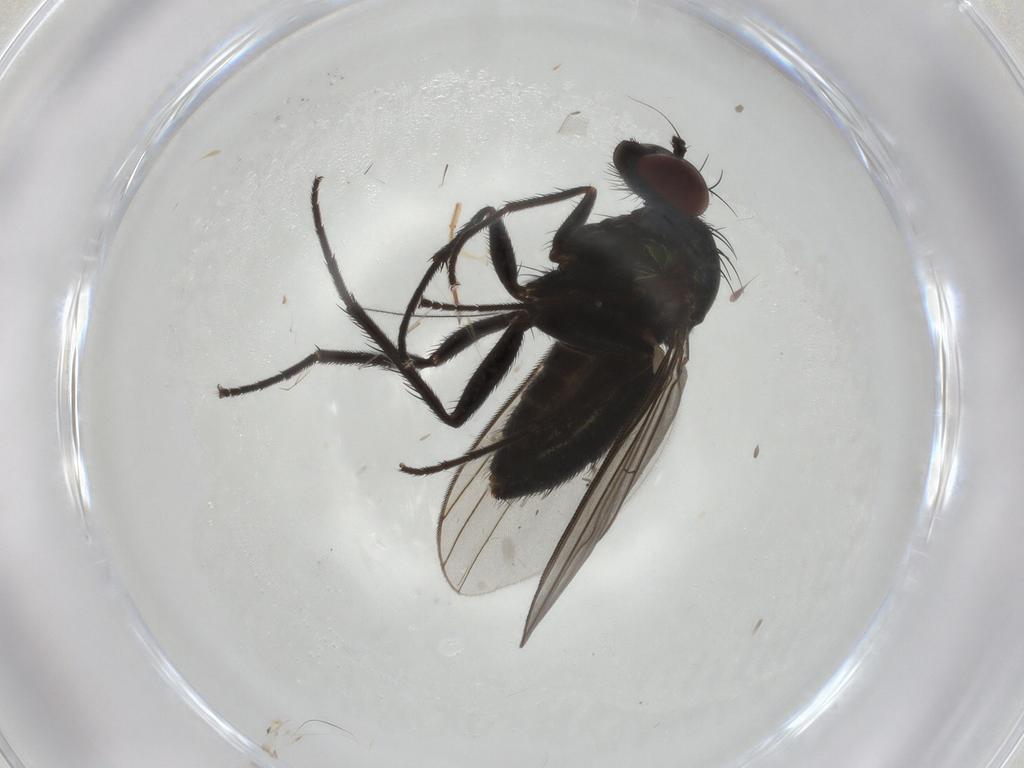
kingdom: Animalia
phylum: Arthropoda
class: Insecta
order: Diptera
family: Dolichopodidae
